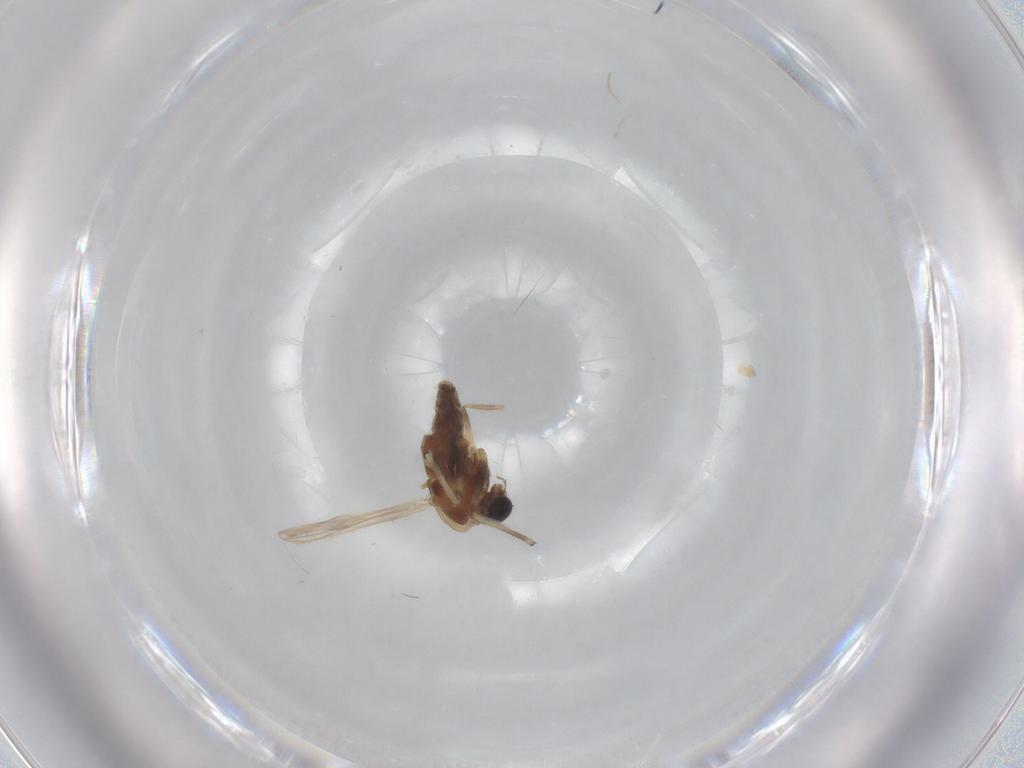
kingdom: Animalia
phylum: Arthropoda
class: Insecta
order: Diptera
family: Chironomidae
